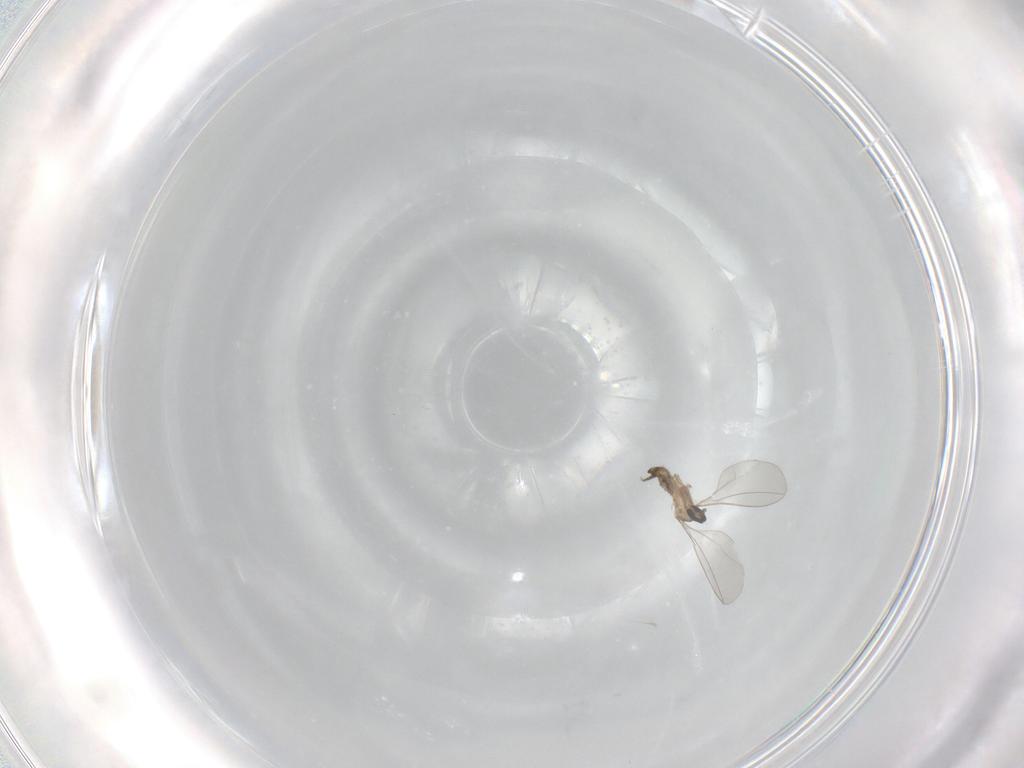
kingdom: Animalia
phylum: Arthropoda
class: Insecta
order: Diptera
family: Cecidomyiidae
